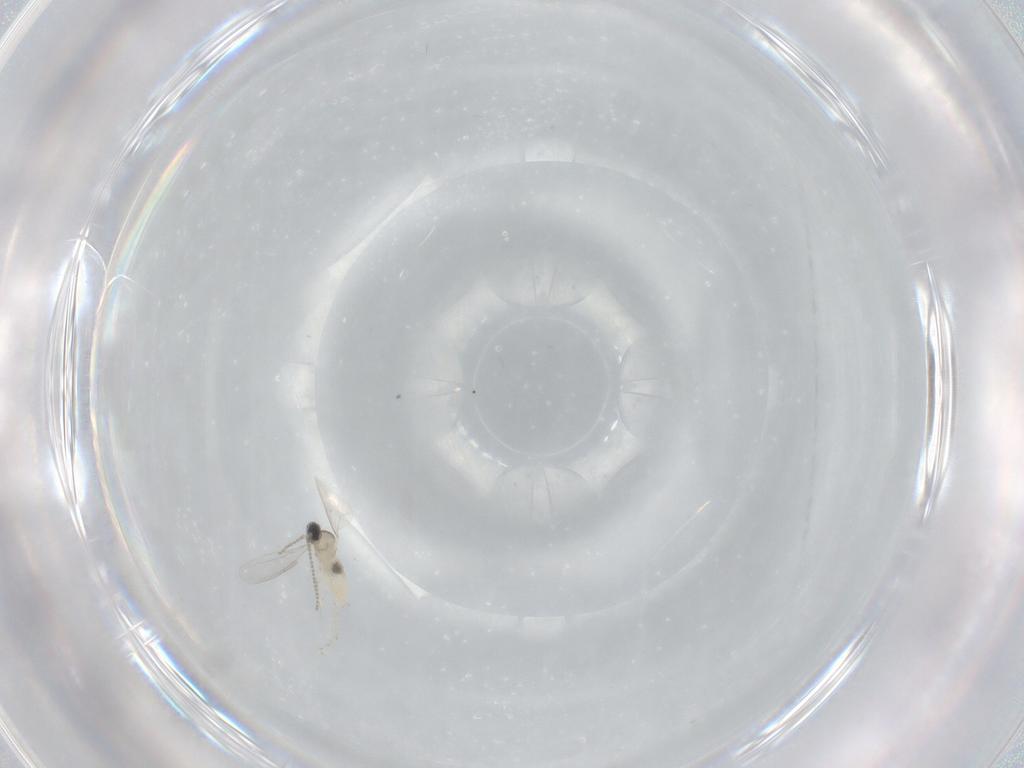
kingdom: Animalia
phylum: Arthropoda
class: Insecta
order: Diptera
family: Cecidomyiidae
